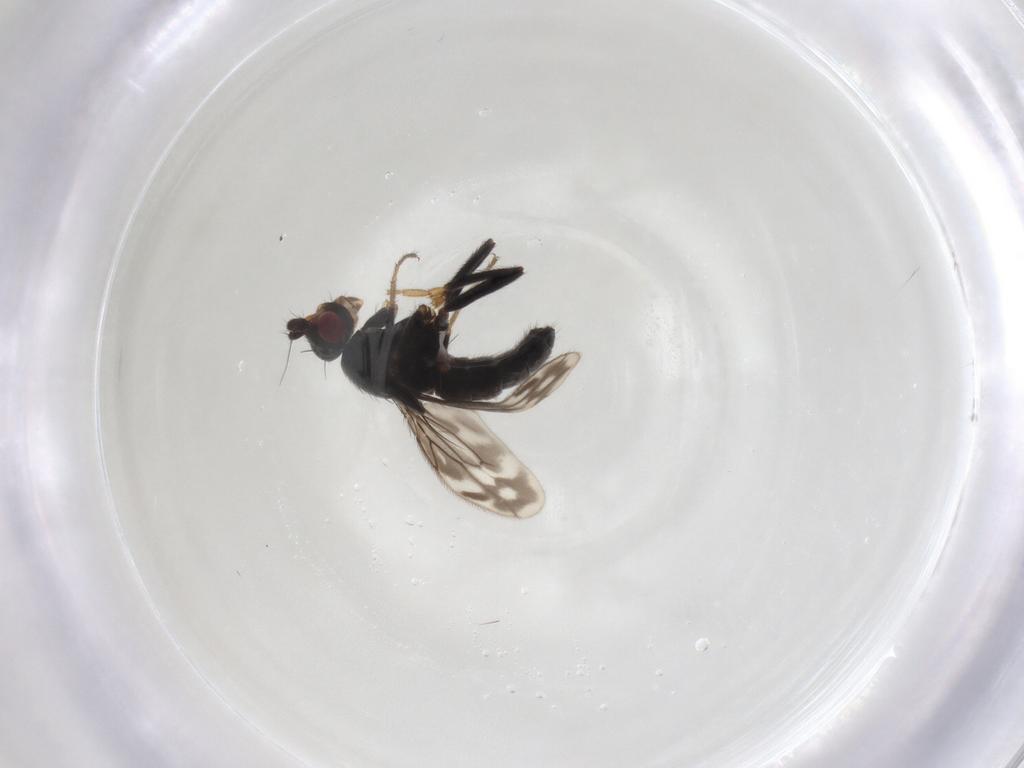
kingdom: Animalia
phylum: Arthropoda
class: Insecta
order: Diptera
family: Sphaeroceridae
